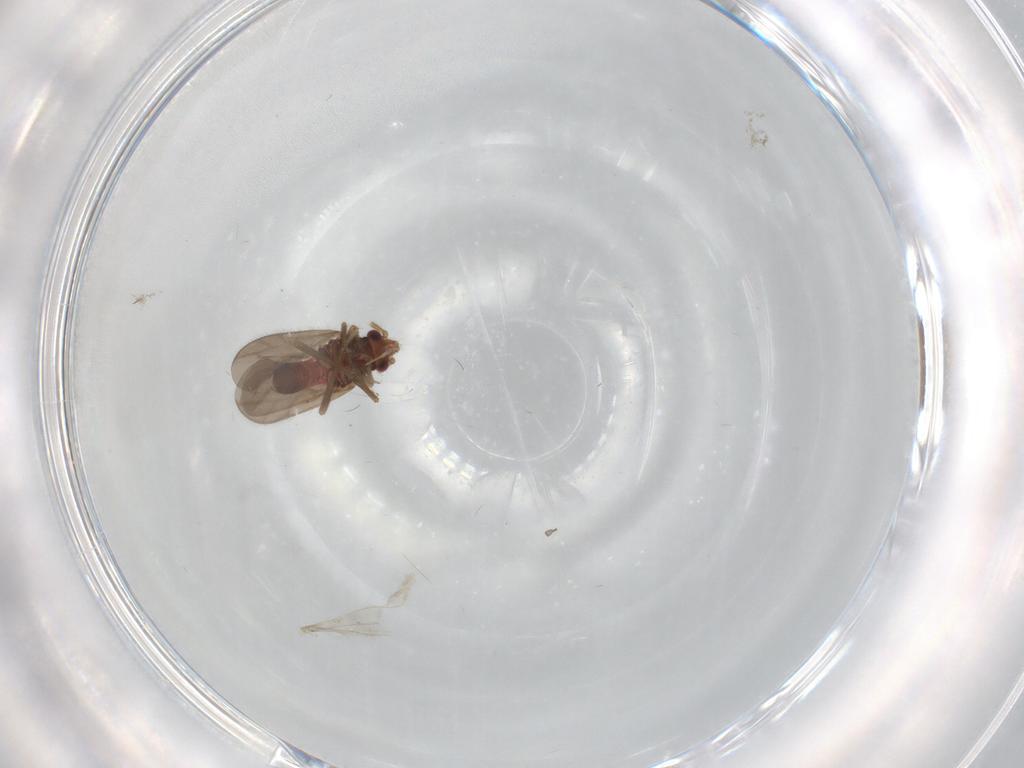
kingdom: Animalia
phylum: Arthropoda
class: Insecta
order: Hemiptera
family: Ceratocombidae
